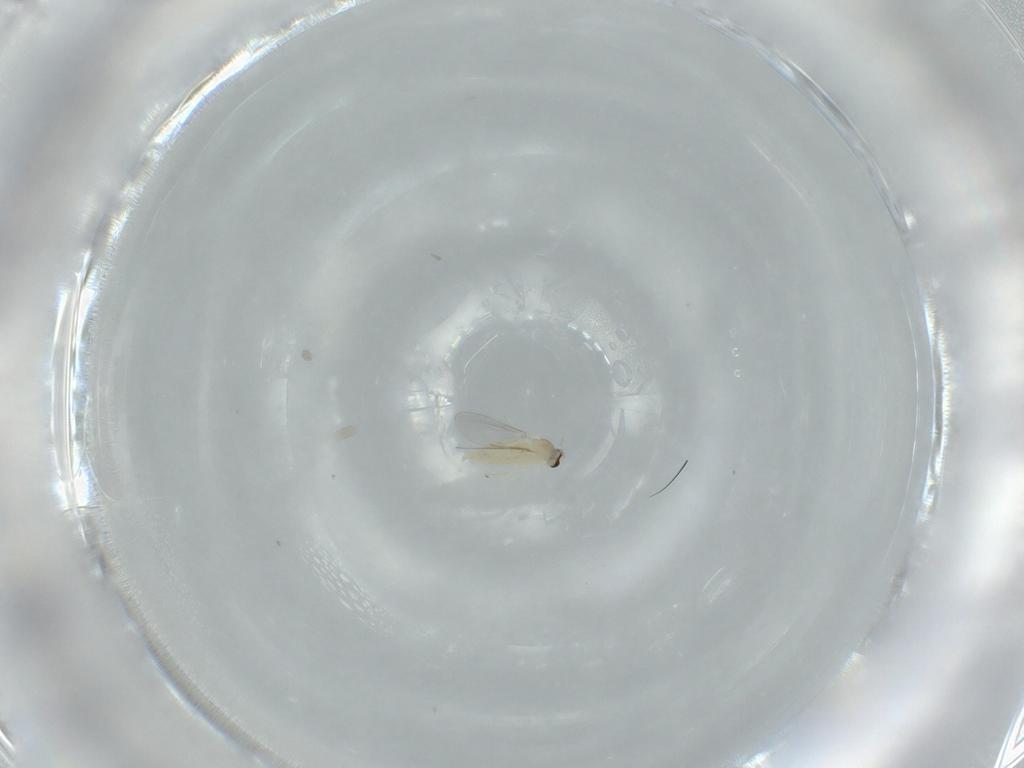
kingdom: Animalia
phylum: Arthropoda
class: Insecta
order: Diptera
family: Cecidomyiidae
